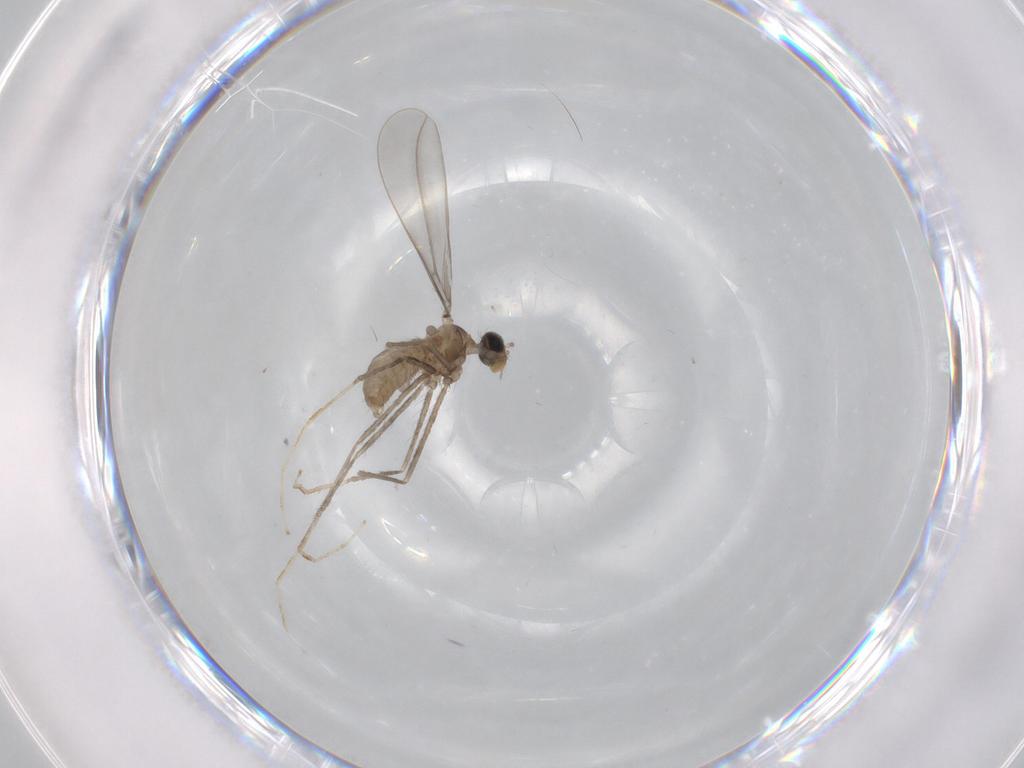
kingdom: Animalia
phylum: Arthropoda
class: Insecta
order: Diptera
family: Cecidomyiidae
